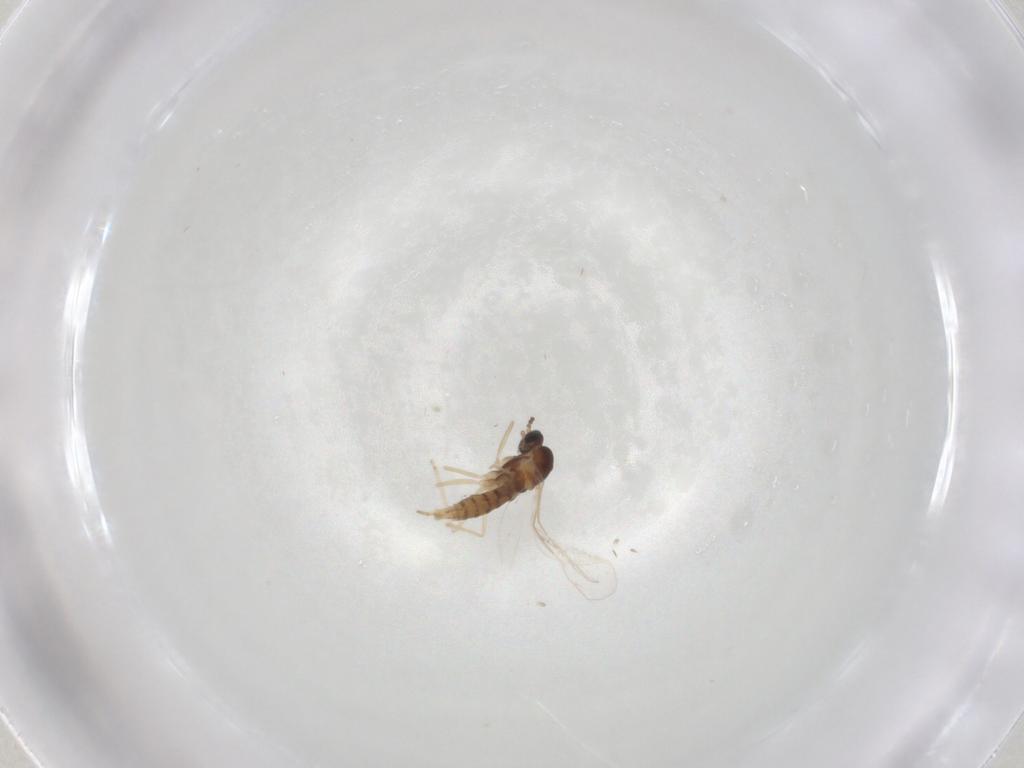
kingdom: Animalia
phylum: Arthropoda
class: Insecta
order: Diptera
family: Cecidomyiidae
